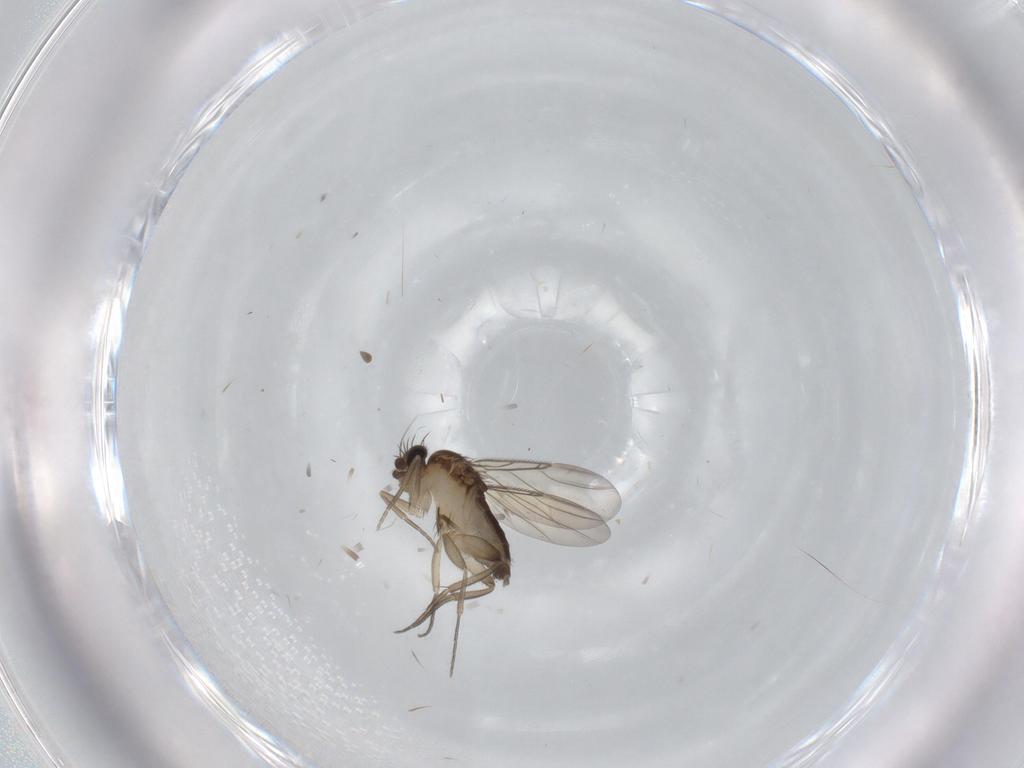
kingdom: Animalia
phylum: Arthropoda
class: Insecta
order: Diptera
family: Phoridae
